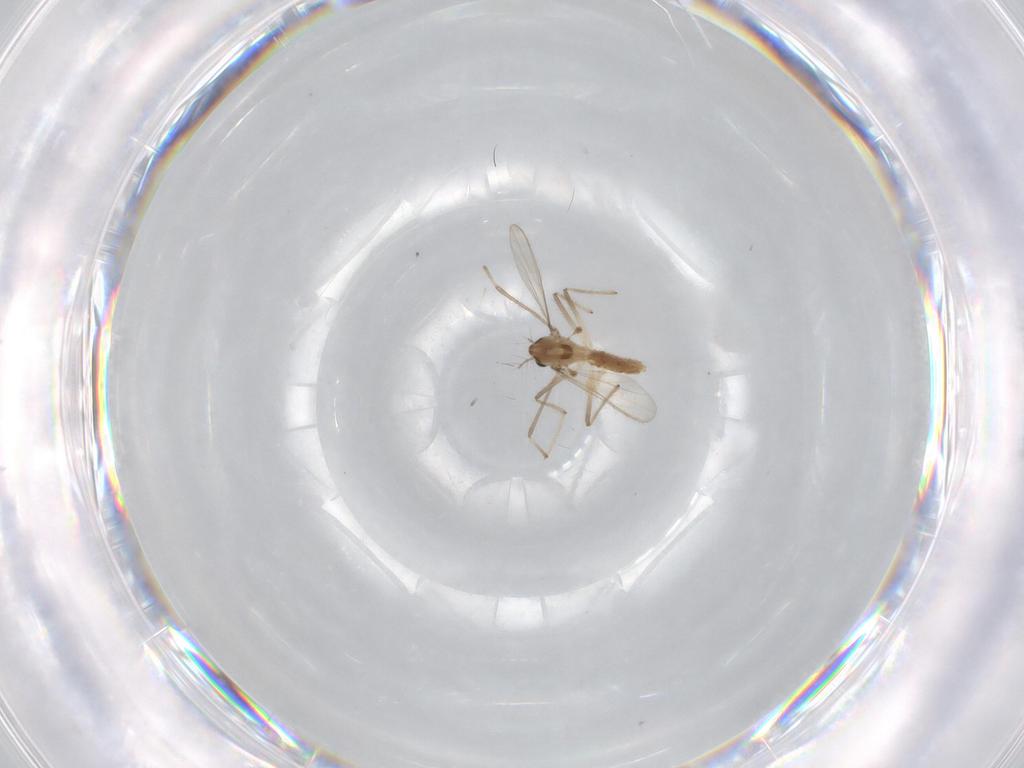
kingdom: Animalia
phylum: Arthropoda
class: Insecta
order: Diptera
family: Chironomidae
